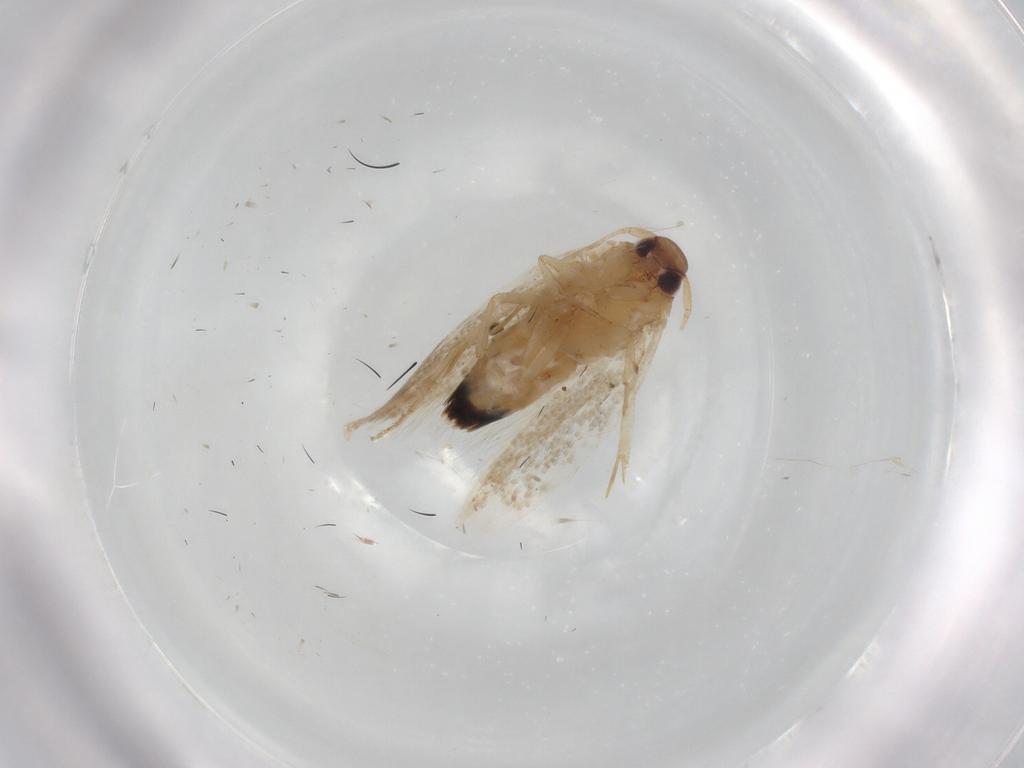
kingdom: Animalia
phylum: Arthropoda
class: Insecta
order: Lepidoptera
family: Cosmopterigidae
